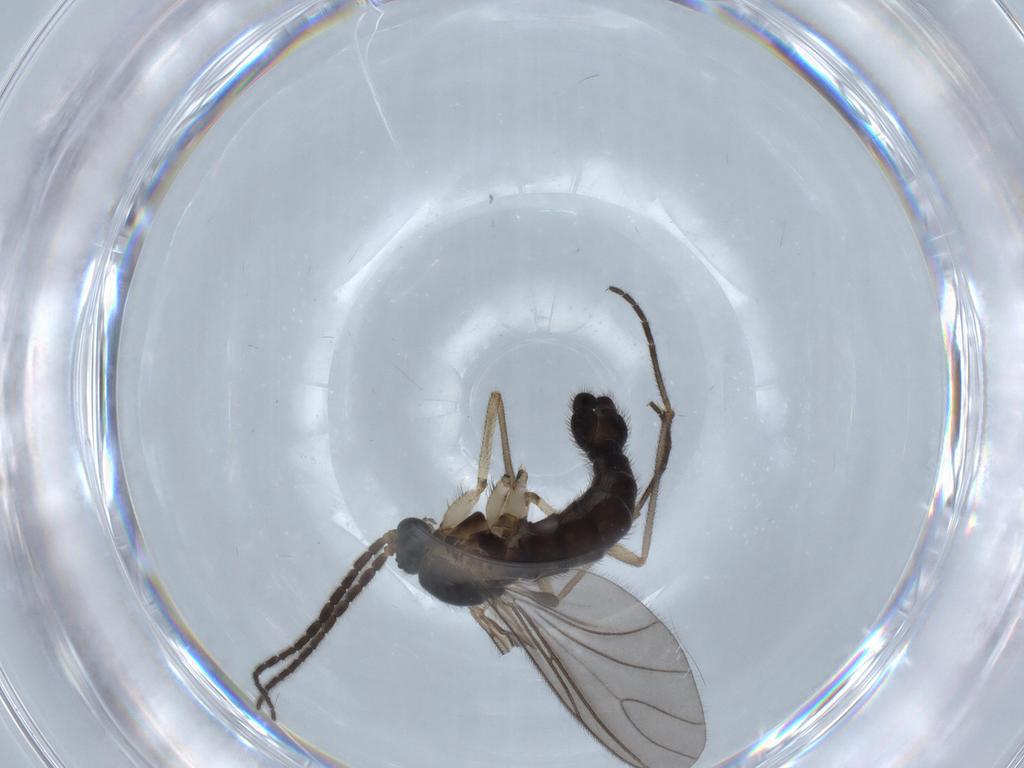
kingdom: Animalia
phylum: Arthropoda
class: Insecta
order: Diptera
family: Sciaridae
